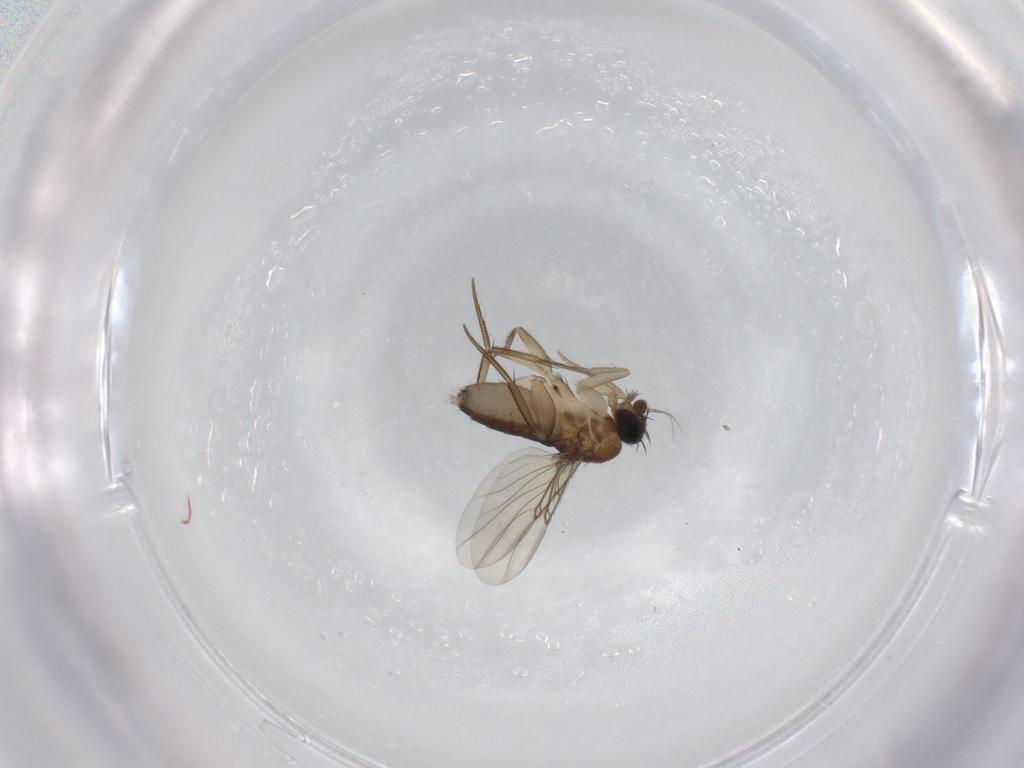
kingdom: Animalia
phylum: Arthropoda
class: Insecta
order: Diptera
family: Phoridae
